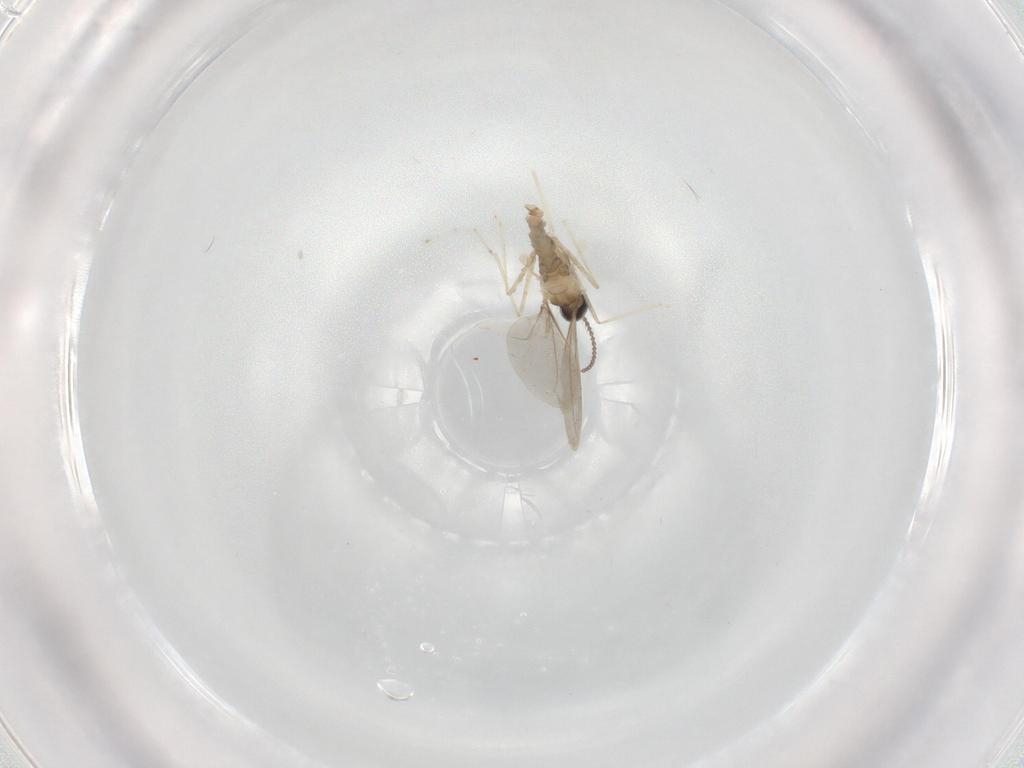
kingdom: Animalia
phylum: Arthropoda
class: Insecta
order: Diptera
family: Cecidomyiidae
